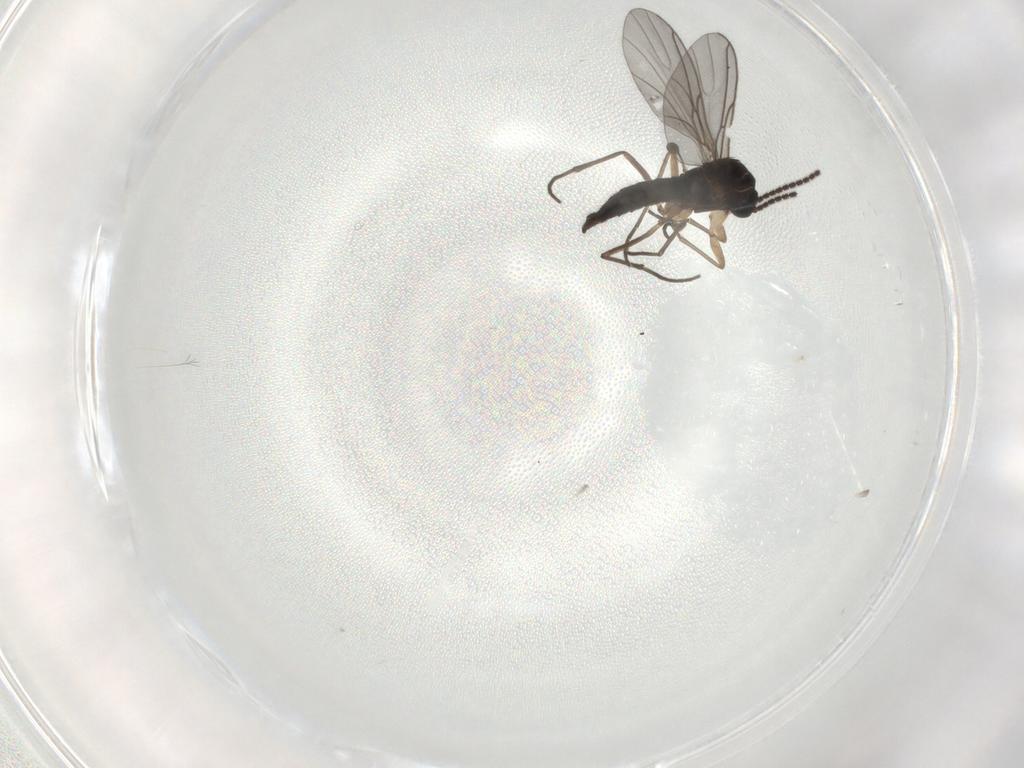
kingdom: Animalia
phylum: Arthropoda
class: Insecta
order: Diptera
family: Sciaridae
